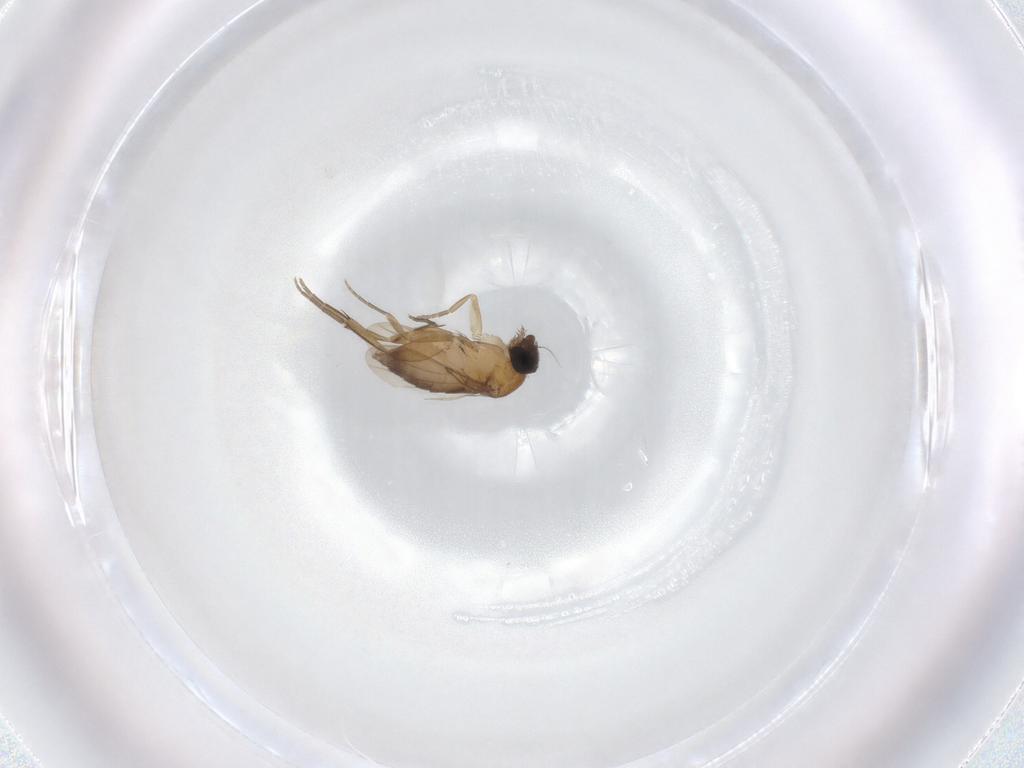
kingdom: Animalia
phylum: Arthropoda
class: Insecta
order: Diptera
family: Phoridae
